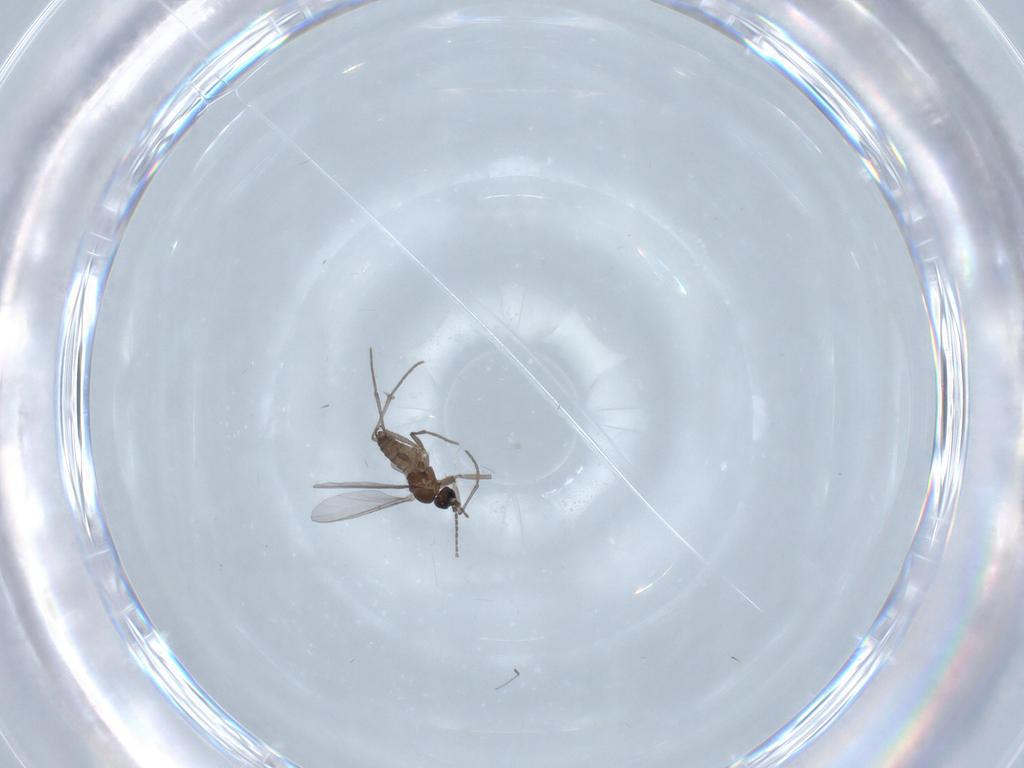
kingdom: Animalia
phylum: Arthropoda
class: Insecta
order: Diptera
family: Sciaridae
